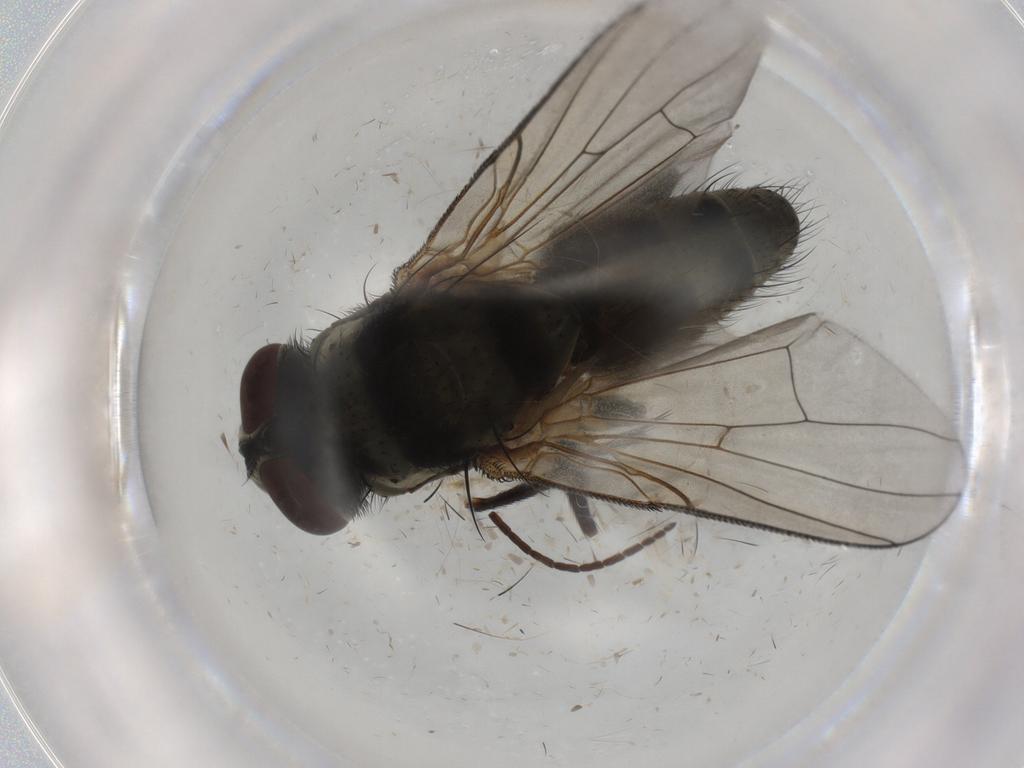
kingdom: Animalia
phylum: Arthropoda
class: Insecta
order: Diptera
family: Muscidae
